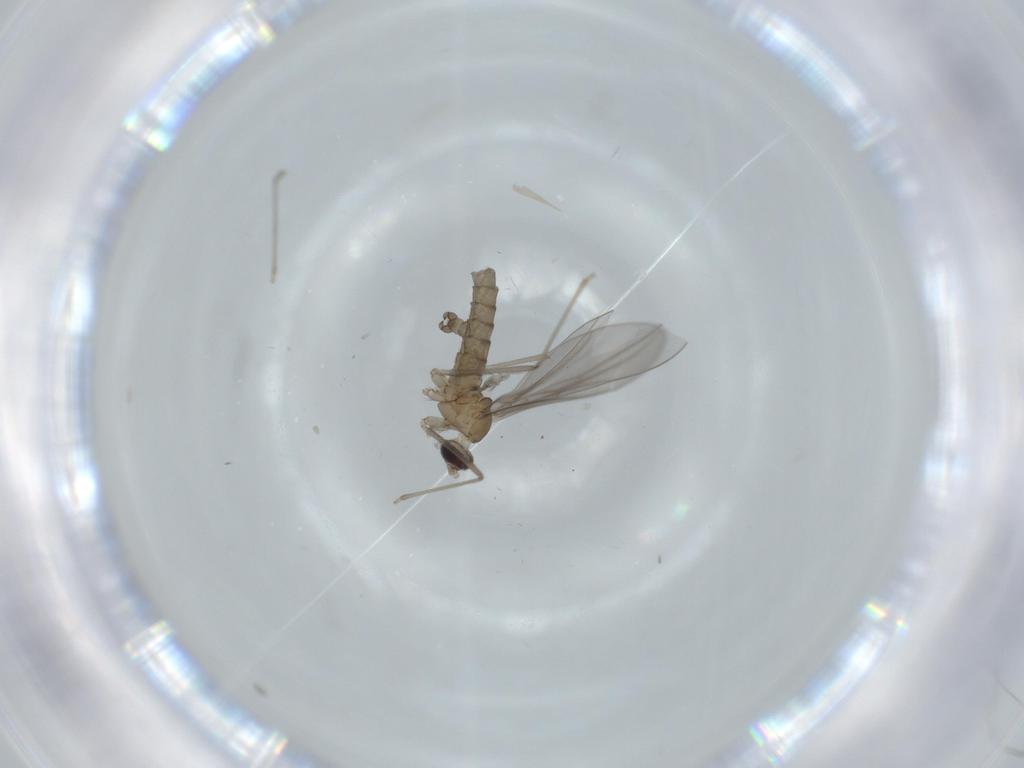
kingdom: Animalia
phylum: Arthropoda
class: Insecta
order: Diptera
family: Cecidomyiidae
